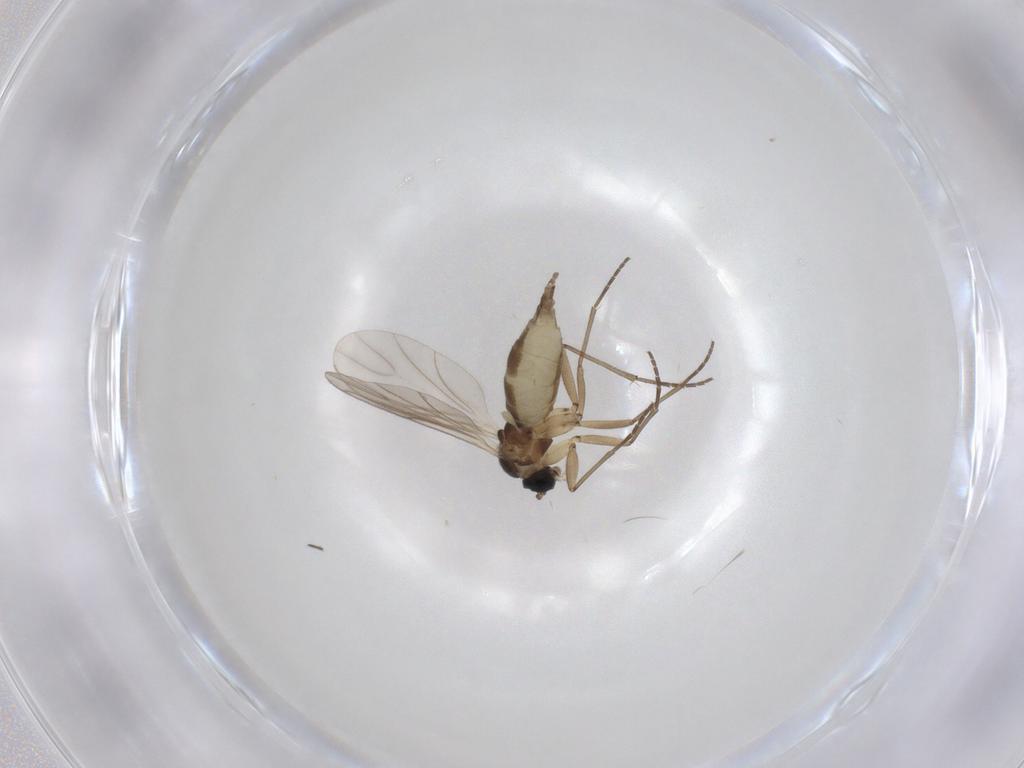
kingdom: Animalia
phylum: Arthropoda
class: Insecta
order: Diptera
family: Sciaridae
